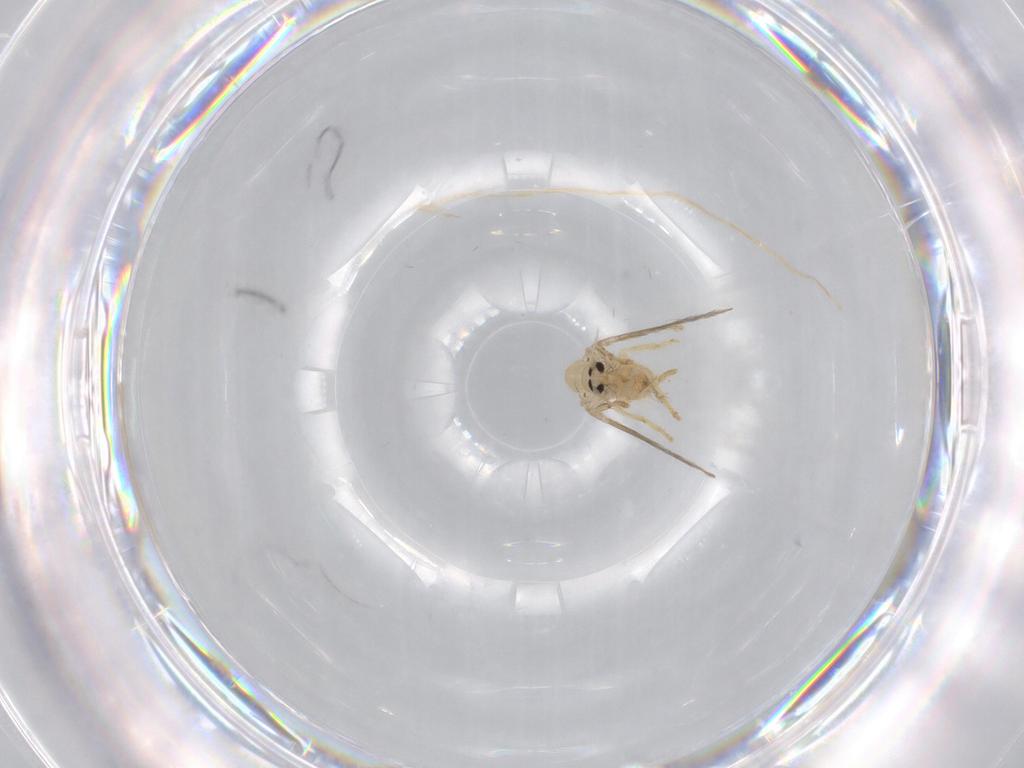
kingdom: Animalia
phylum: Arthropoda
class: Insecta
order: Diptera
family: Psychodidae
